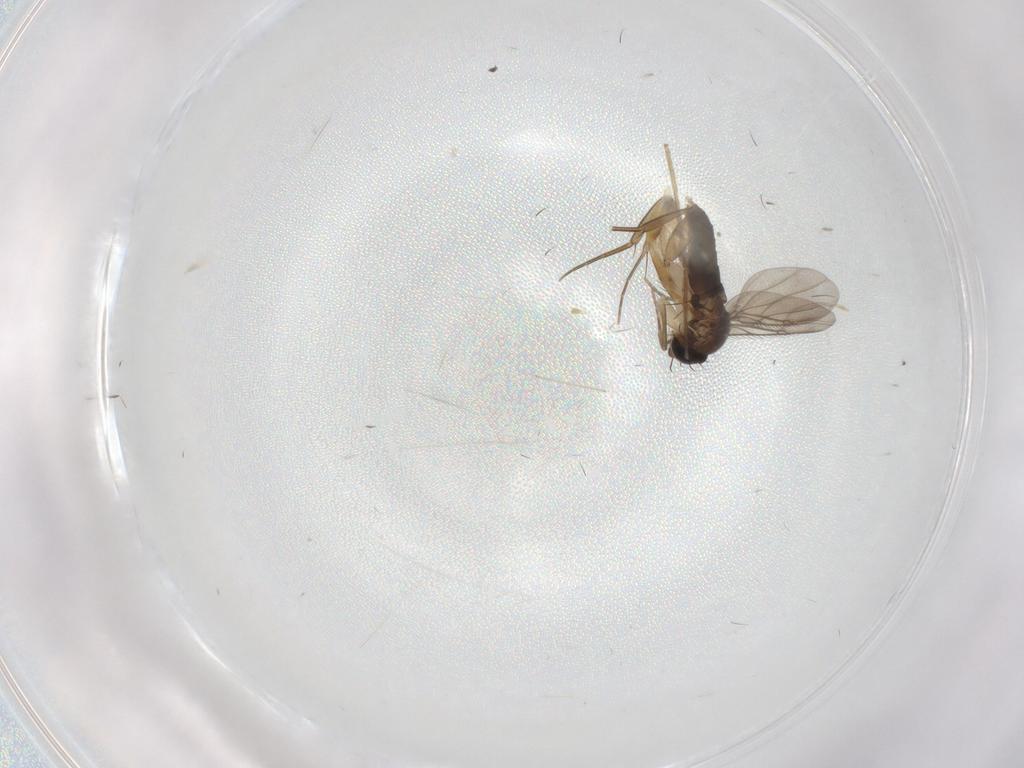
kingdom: Animalia
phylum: Arthropoda
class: Insecta
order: Diptera
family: Phoridae
